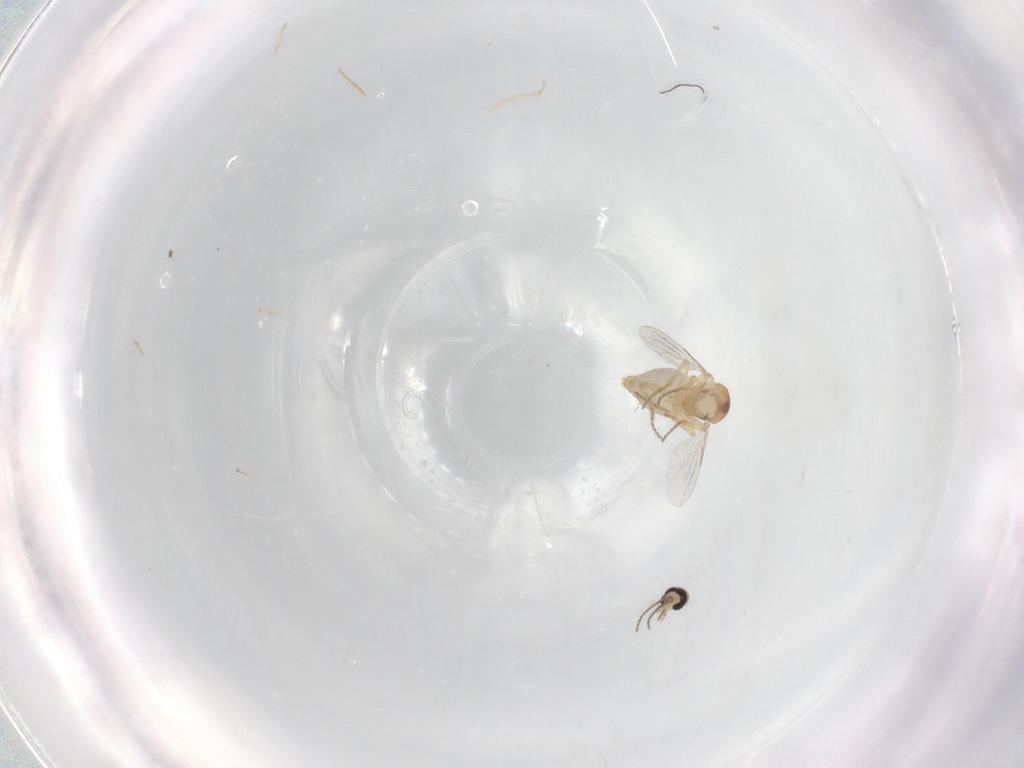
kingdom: Animalia
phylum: Arthropoda
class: Insecta
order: Diptera
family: Ceratopogonidae
